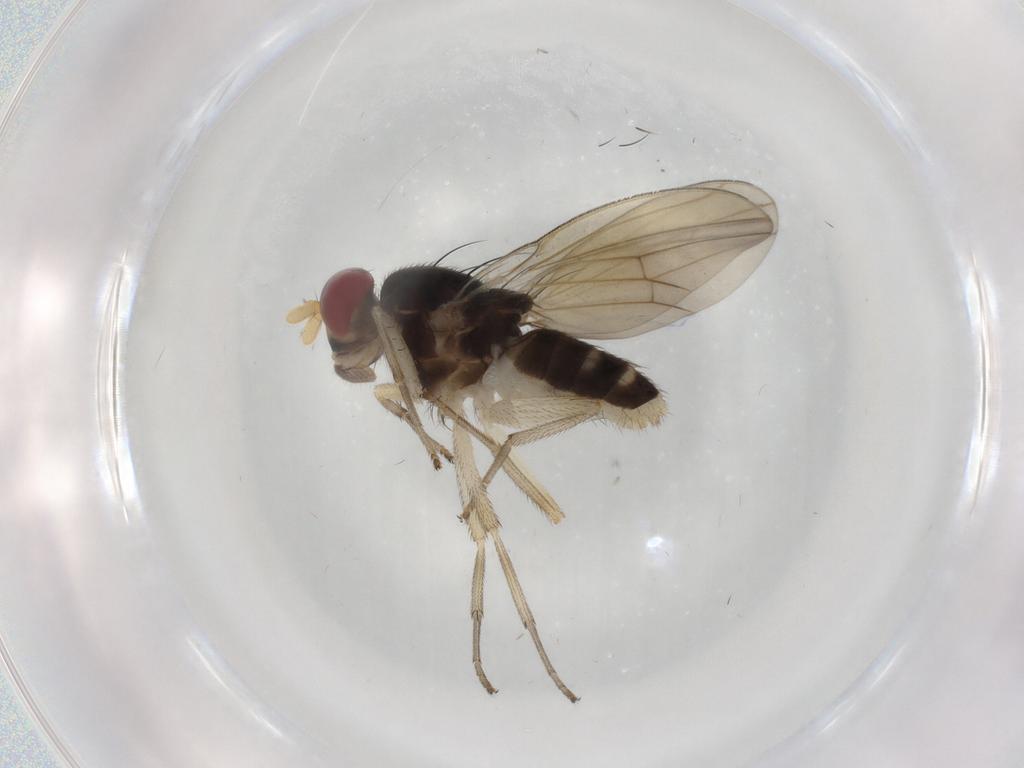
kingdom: Animalia
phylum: Arthropoda
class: Insecta
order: Diptera
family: Lauxaniidae
